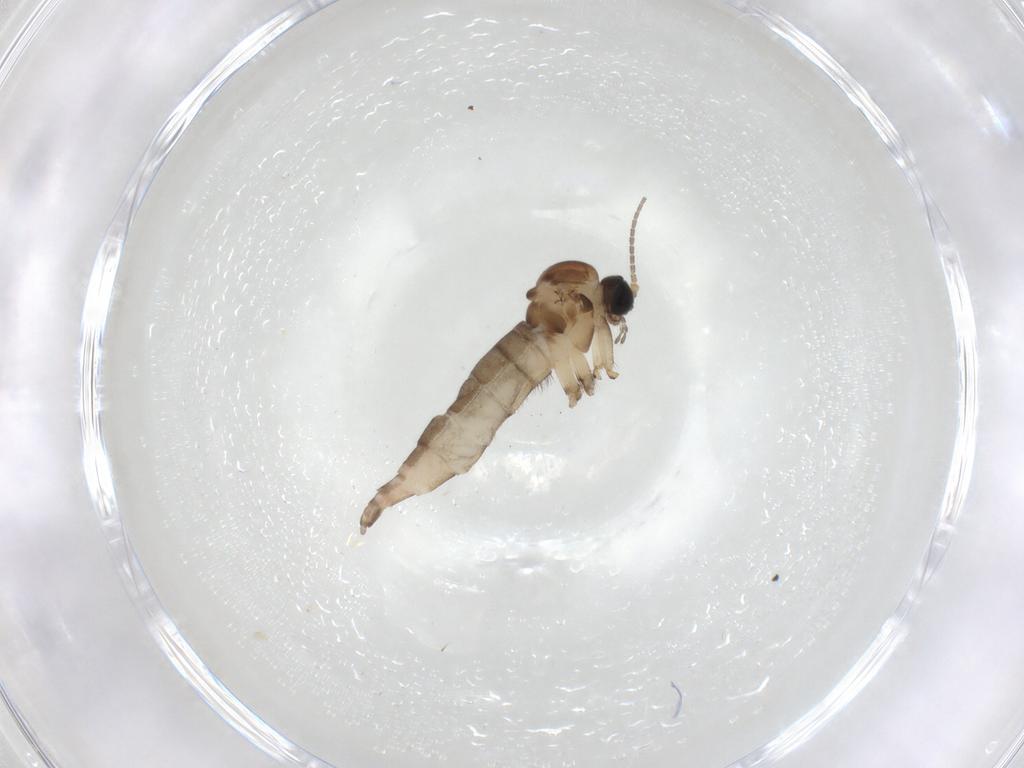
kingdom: Animalia
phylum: Arthropoda
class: Insecta
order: Diptera
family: Sciaridae
